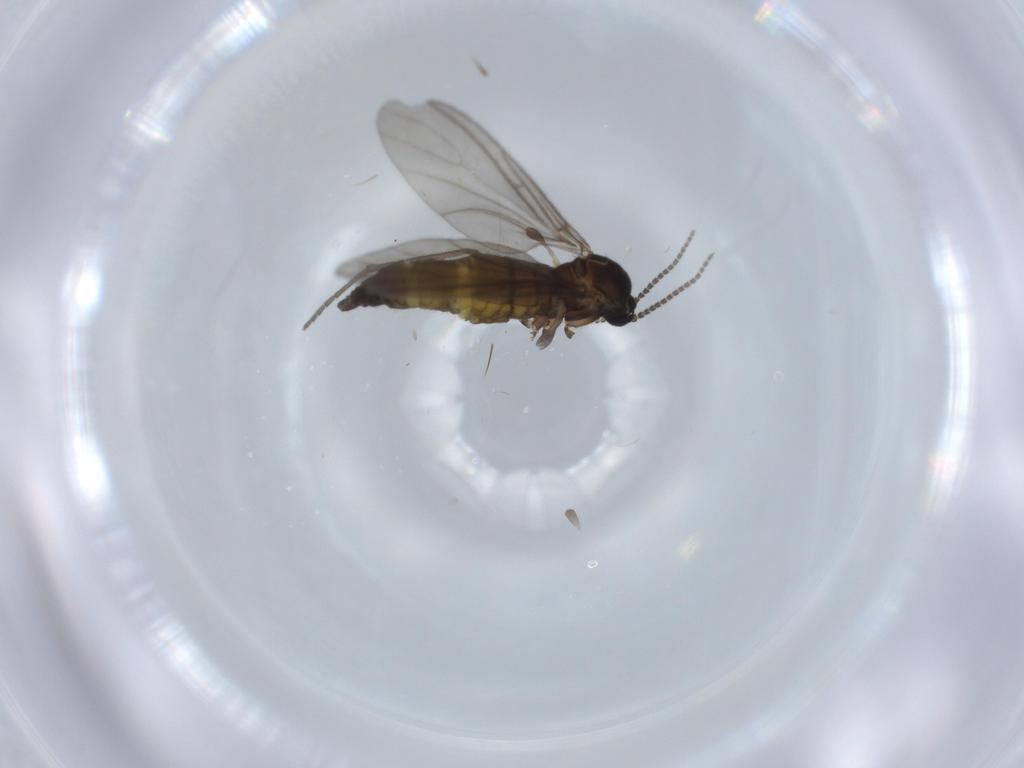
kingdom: Animalia
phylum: Arthropoda
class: Insecta
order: Diptera
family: Sciaridae
